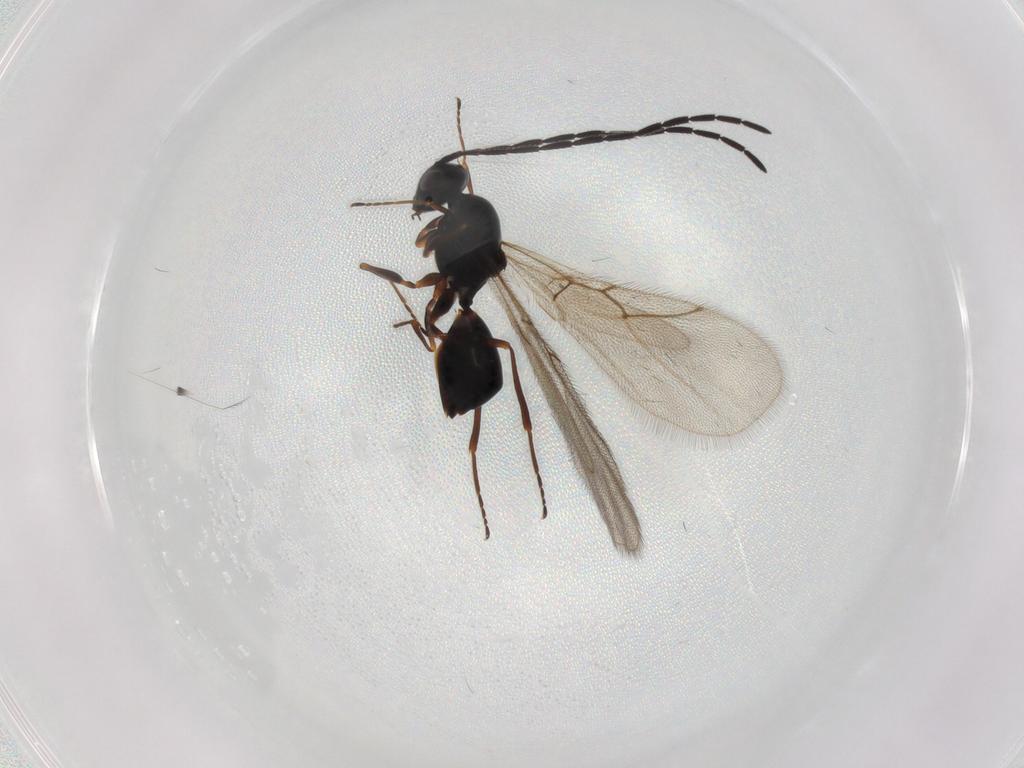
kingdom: Animalia
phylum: Arthropoda
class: Insecta
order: Hymenoptera
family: Figitidae
